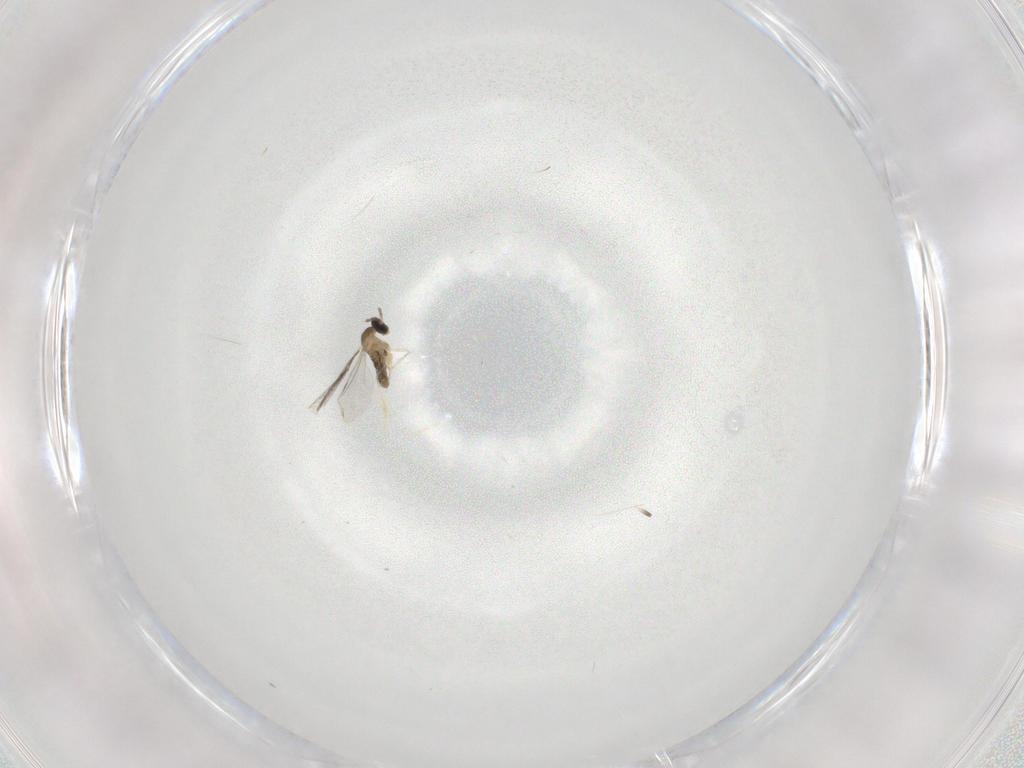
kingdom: Animalia
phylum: Arthropoda
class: Insecta
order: Diptera
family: Cecidomyiidae
